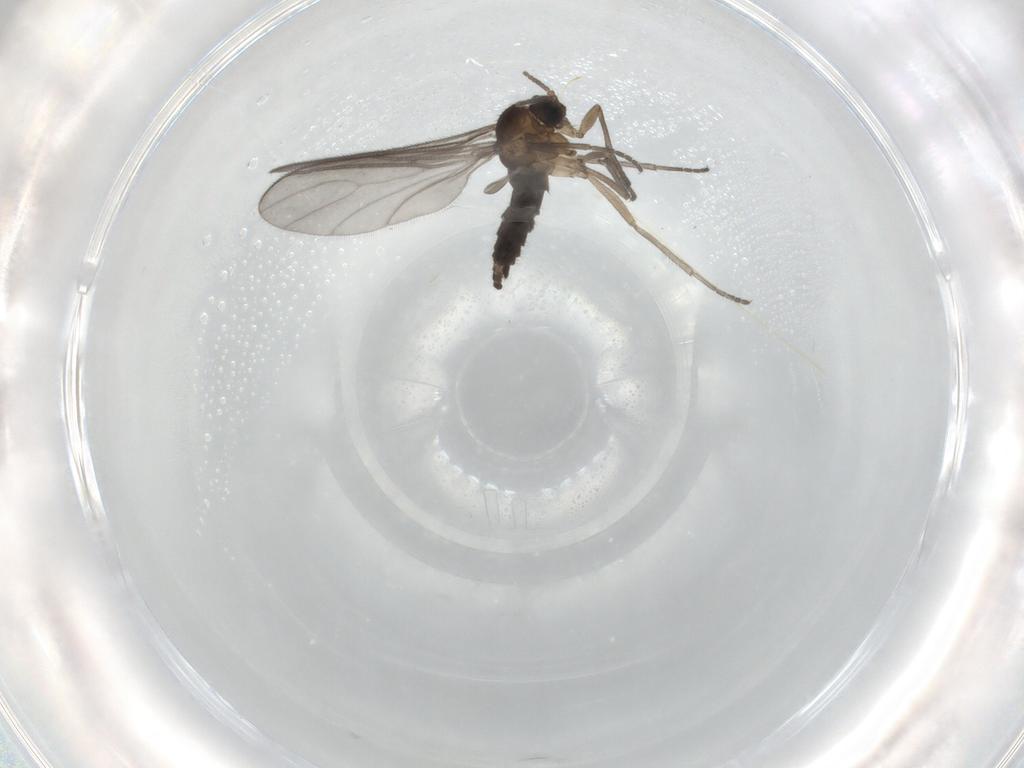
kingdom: Animalia
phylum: Arthropoda
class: Insecta
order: Diptera
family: Sciaridae
